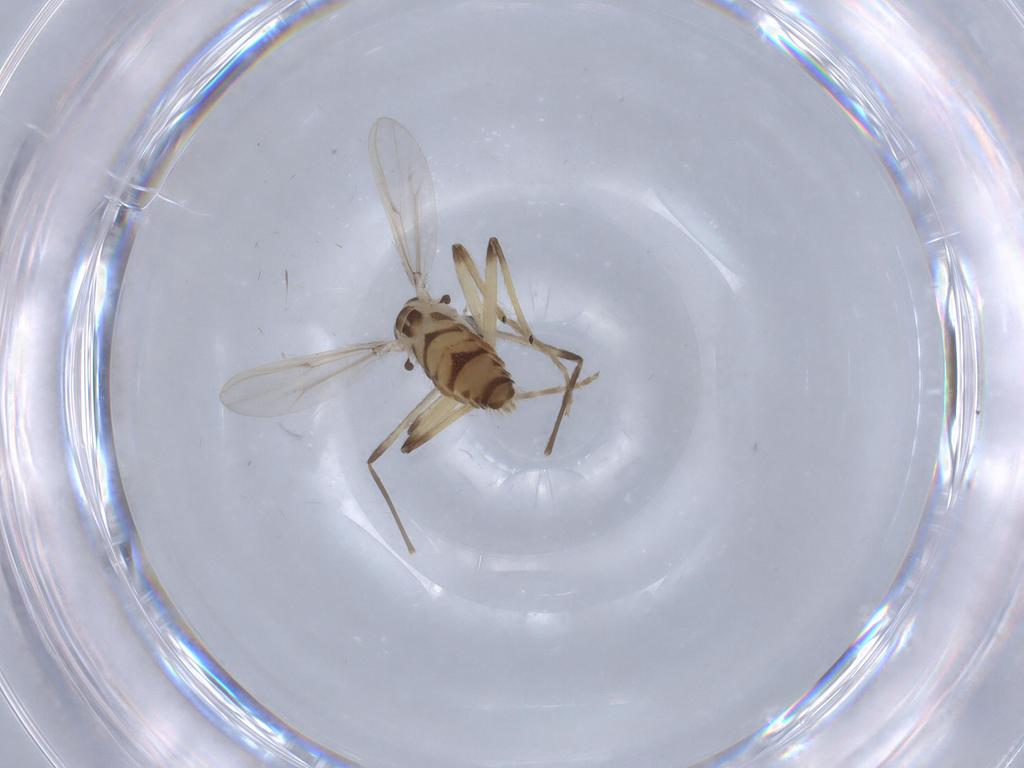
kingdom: Animalia
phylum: Arthropoda
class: Insecta
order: Diptera
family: Chironomidae
